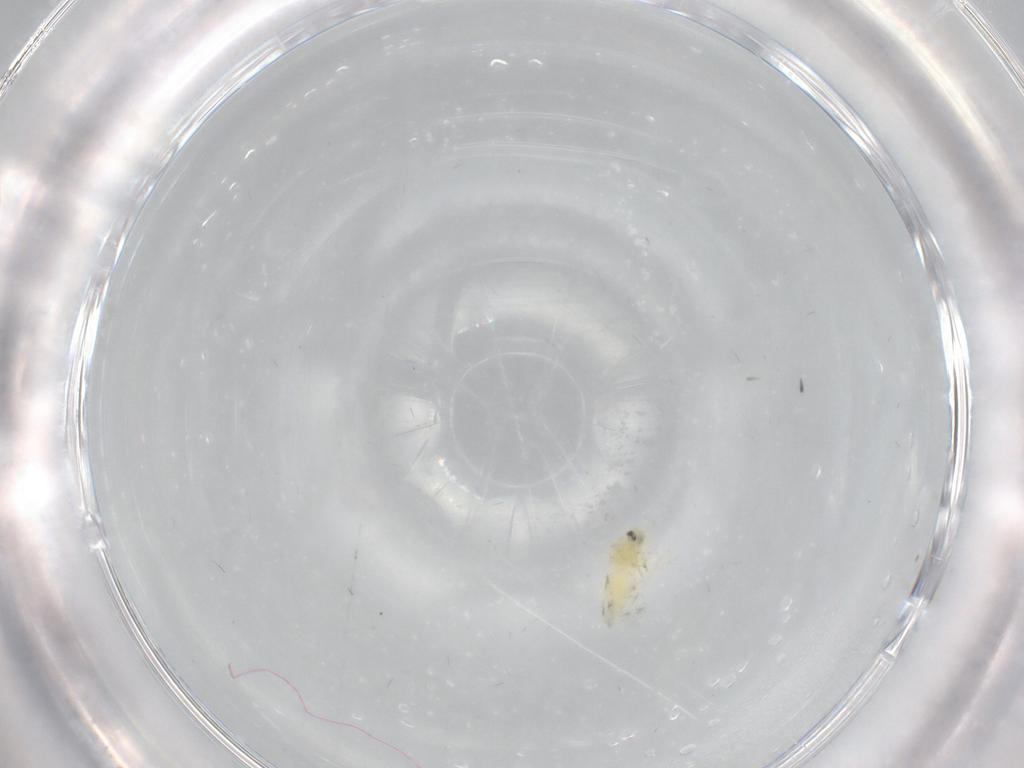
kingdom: Animalia
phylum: Arthropoda
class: Insecta
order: Hemiptera
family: Aleyrodidae
